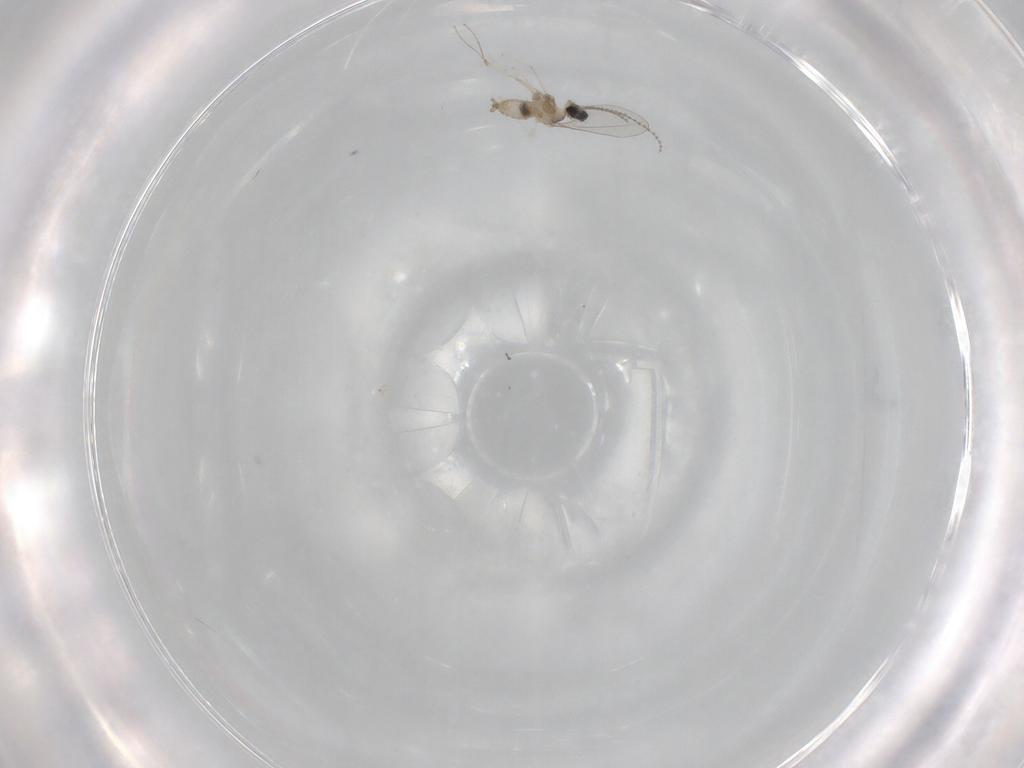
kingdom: Animalia
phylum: Arthropoda
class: Insecta
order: Diptera
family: Cecidomyiidae
